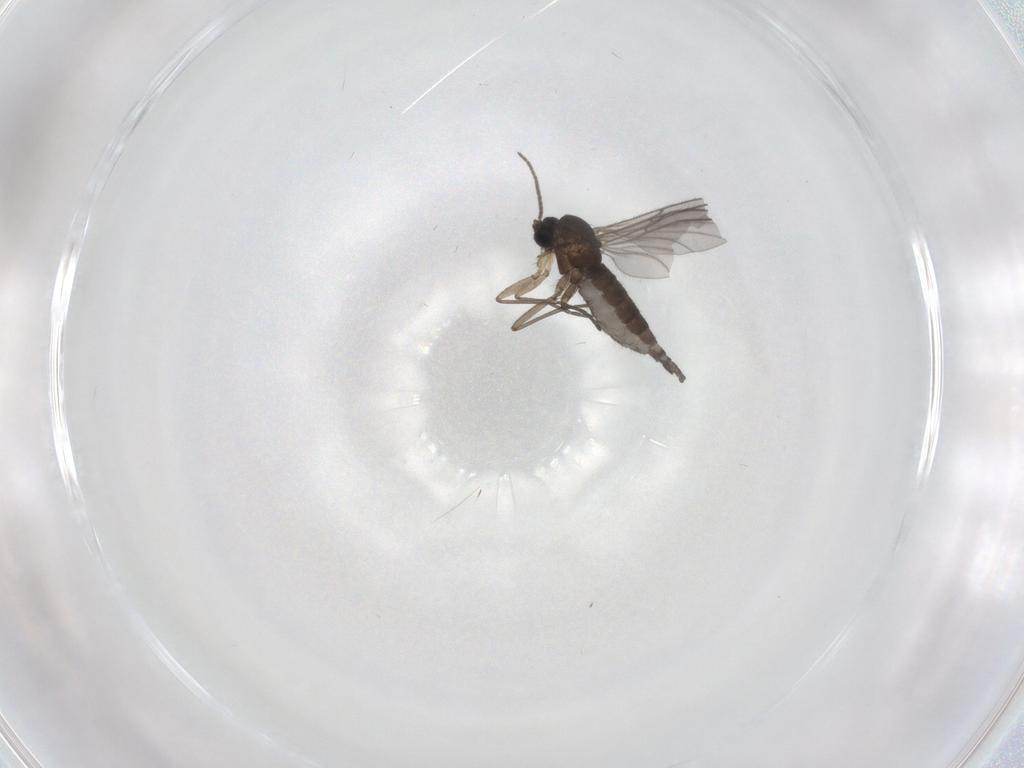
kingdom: Animalia
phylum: Arthropoda
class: Insecta
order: Diptera
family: Sciaridae
